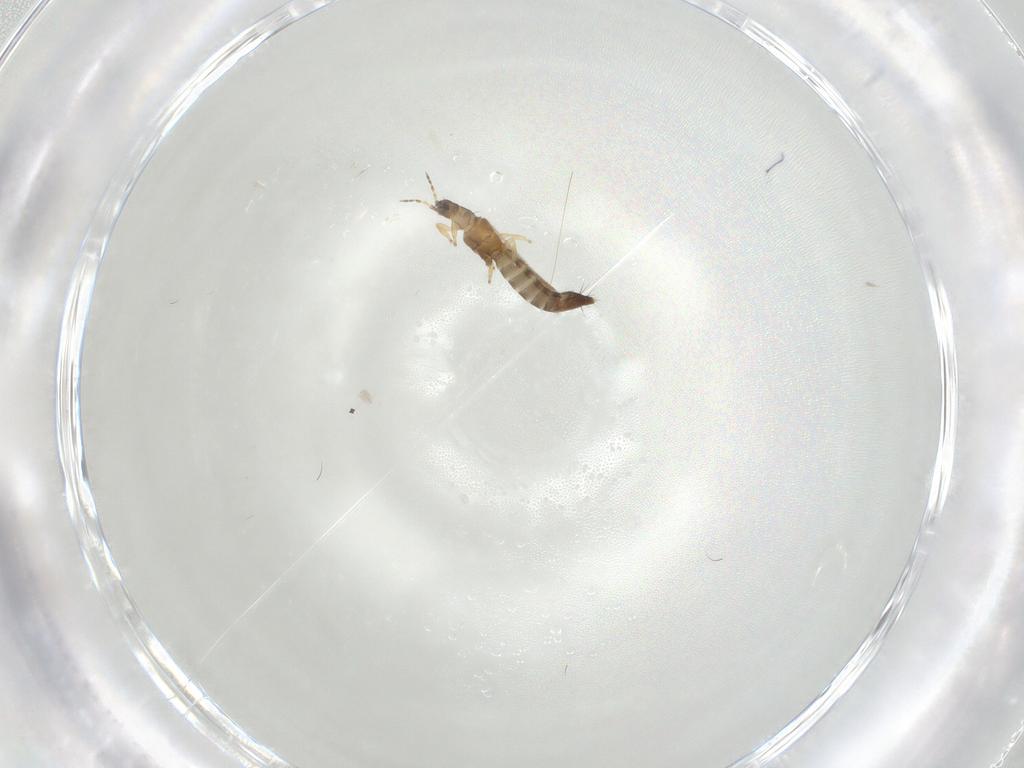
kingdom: Animalia
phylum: Arthropoda
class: Insecta
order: Thysanoptera
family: Thripidae
